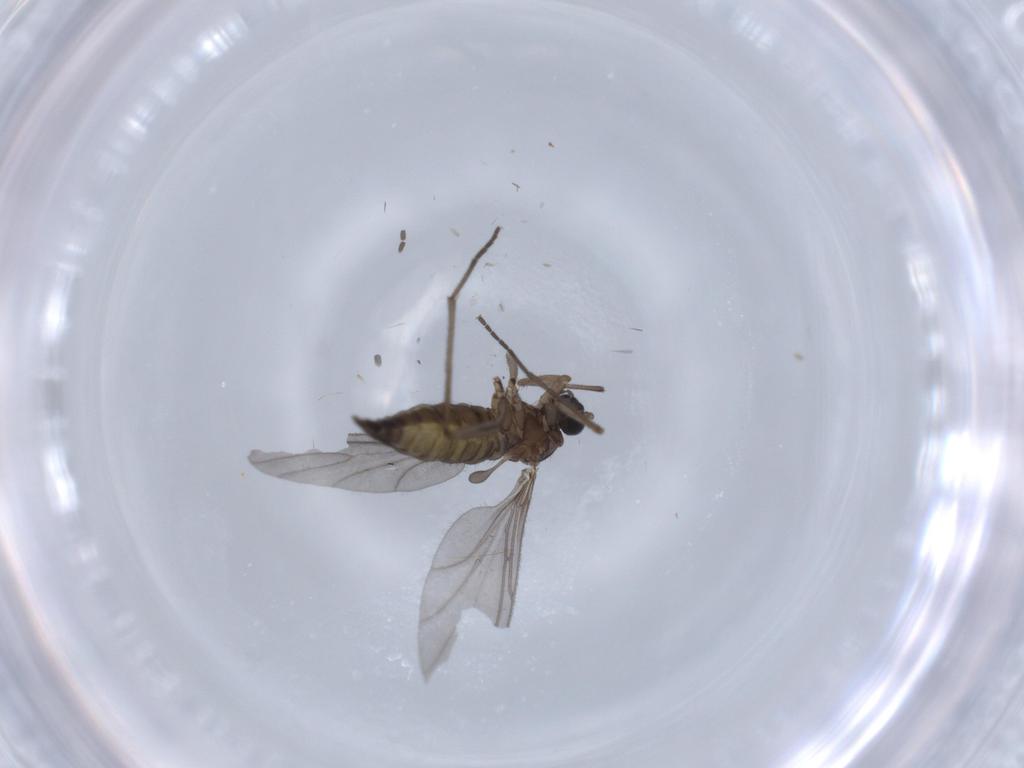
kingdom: Animalia
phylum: Arthropoda
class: Insecta
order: Diptera
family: Sciaridae
